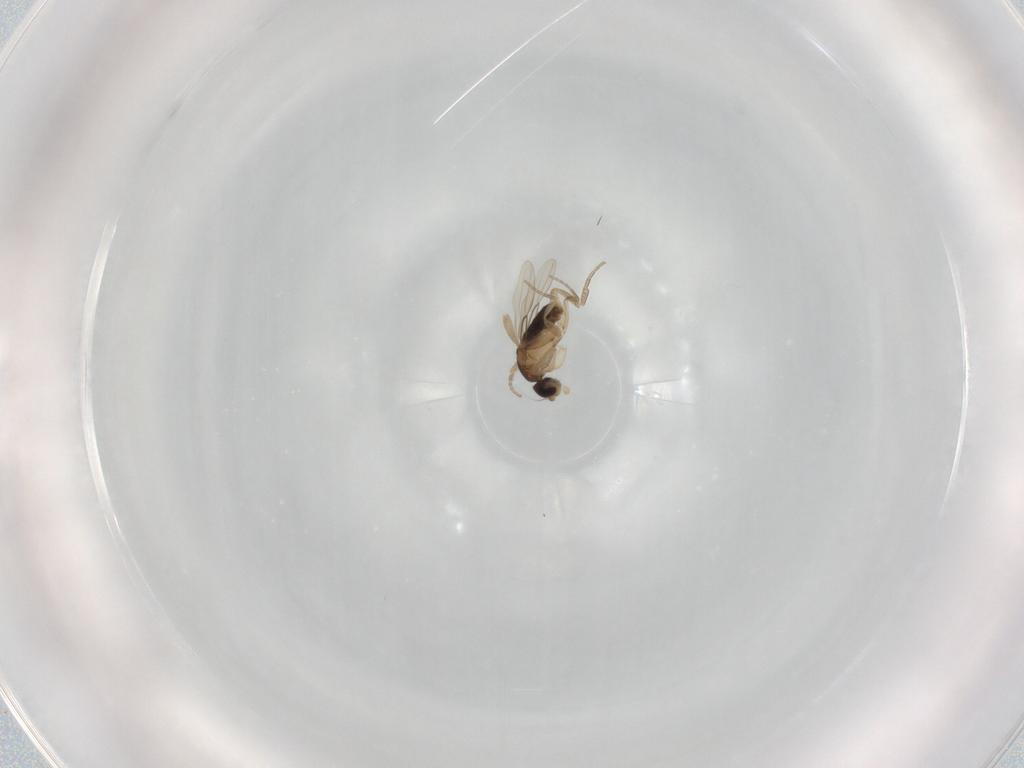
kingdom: Animalia
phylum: Arthropoda
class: Insecta
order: Diptera
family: Phoridae
